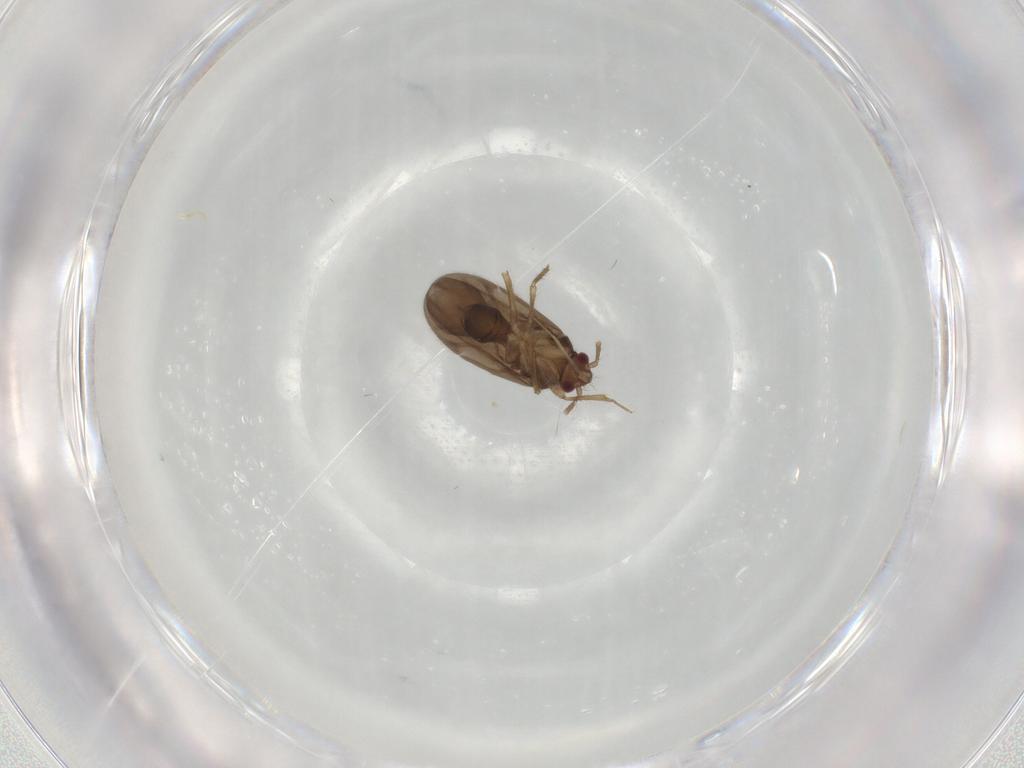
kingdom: Animalia
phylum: Arthropoda
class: Insecta
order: Hemiptera
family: Ceratocombidae
